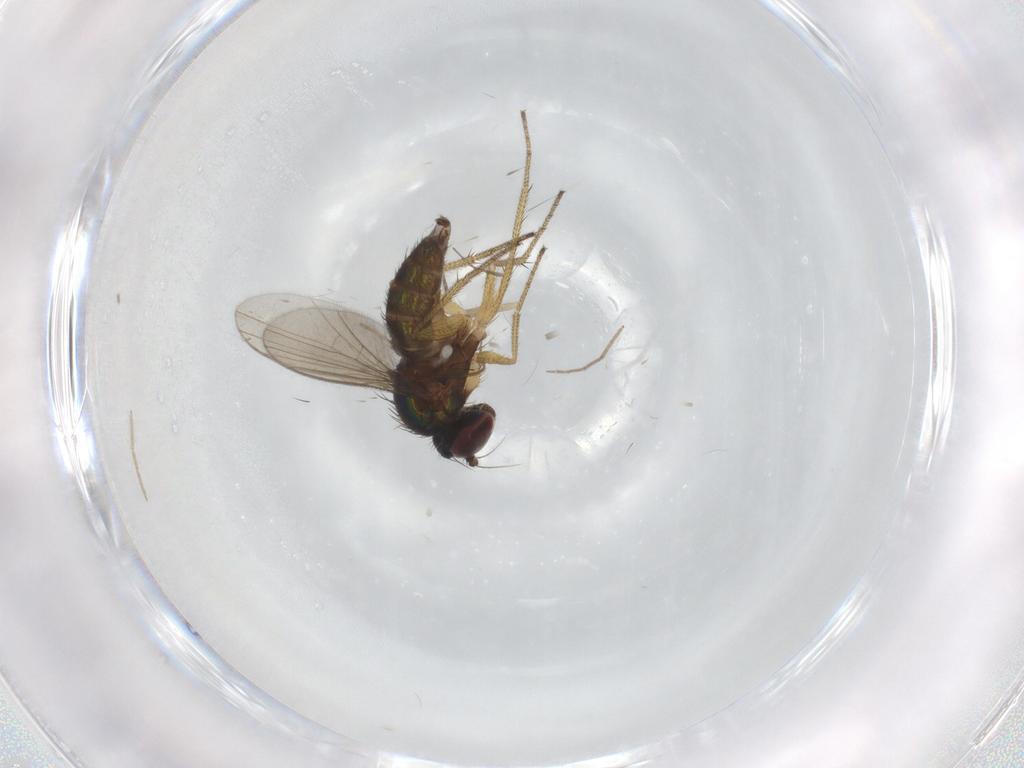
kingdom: Animalia
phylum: Arthropoda
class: Insecta
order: Diptera
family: Chironomidae
